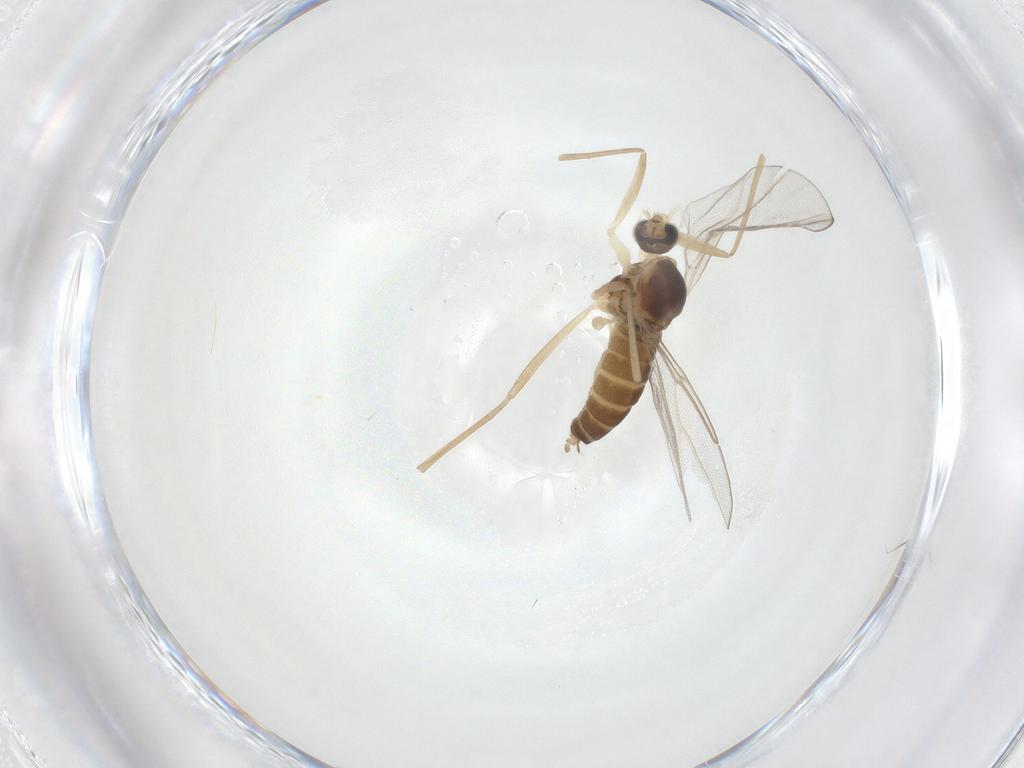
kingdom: Animalia
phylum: Arthropoda
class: Insecta
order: Diptera
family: Cecidomyiidae
